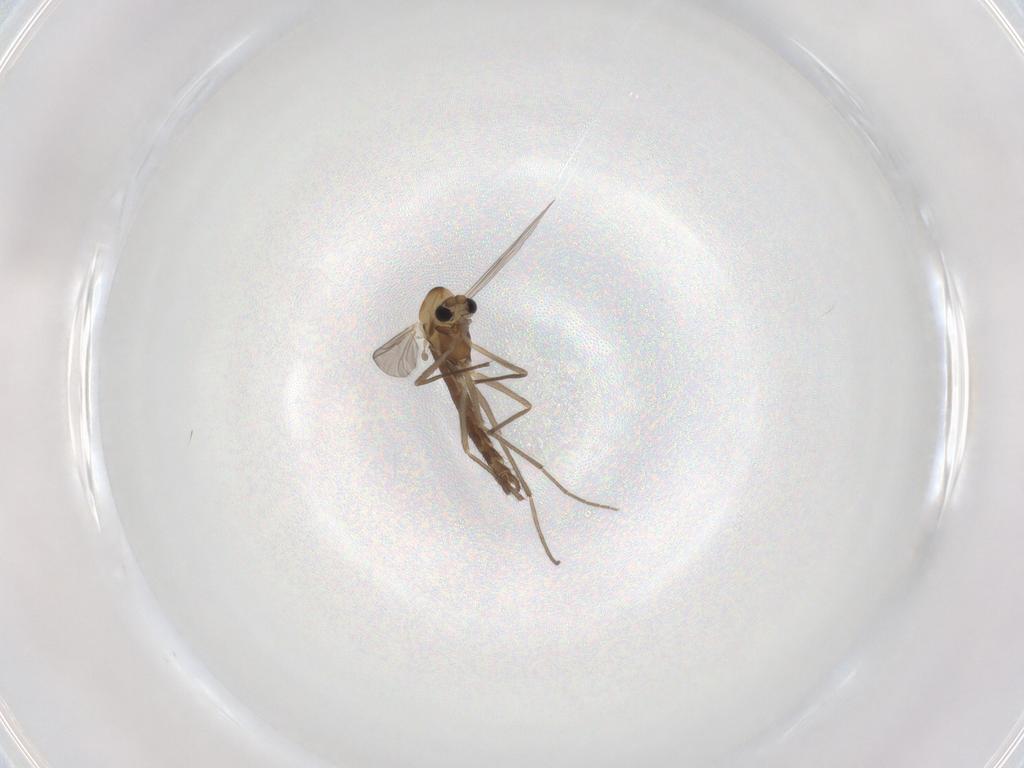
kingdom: Animalia
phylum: Arthropoda
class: Insecta
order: Diptera
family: Chironomidae
